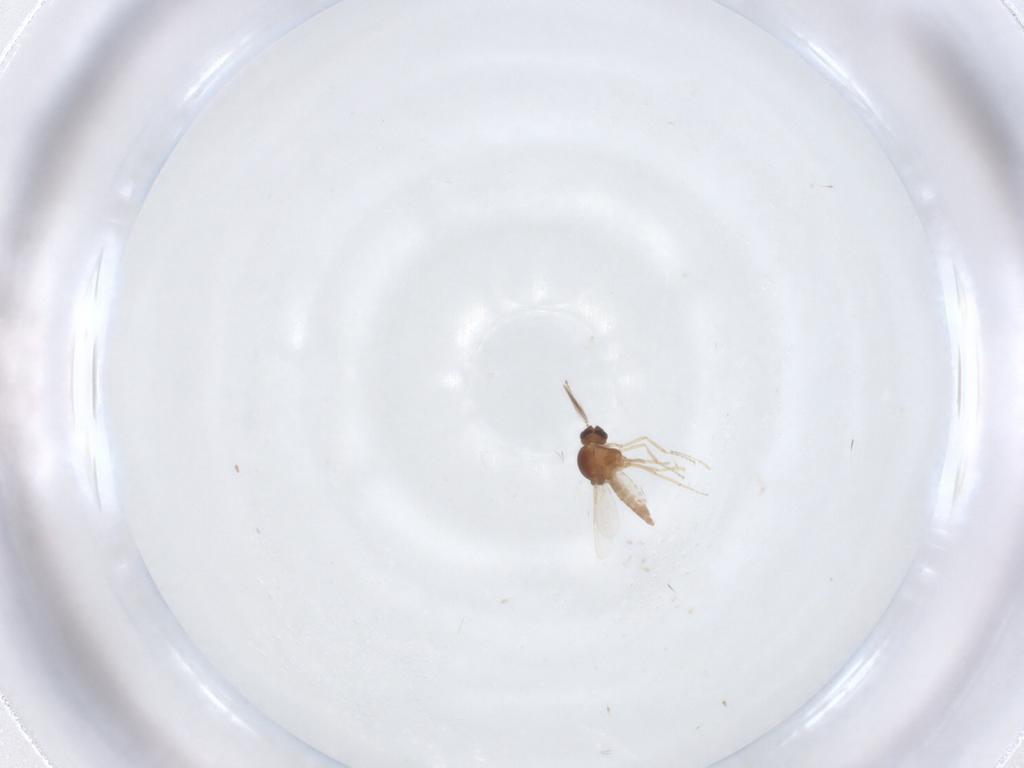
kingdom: Animalia
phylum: Arthropoda
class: Insecta
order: Diptera
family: Ceratopogonidae
